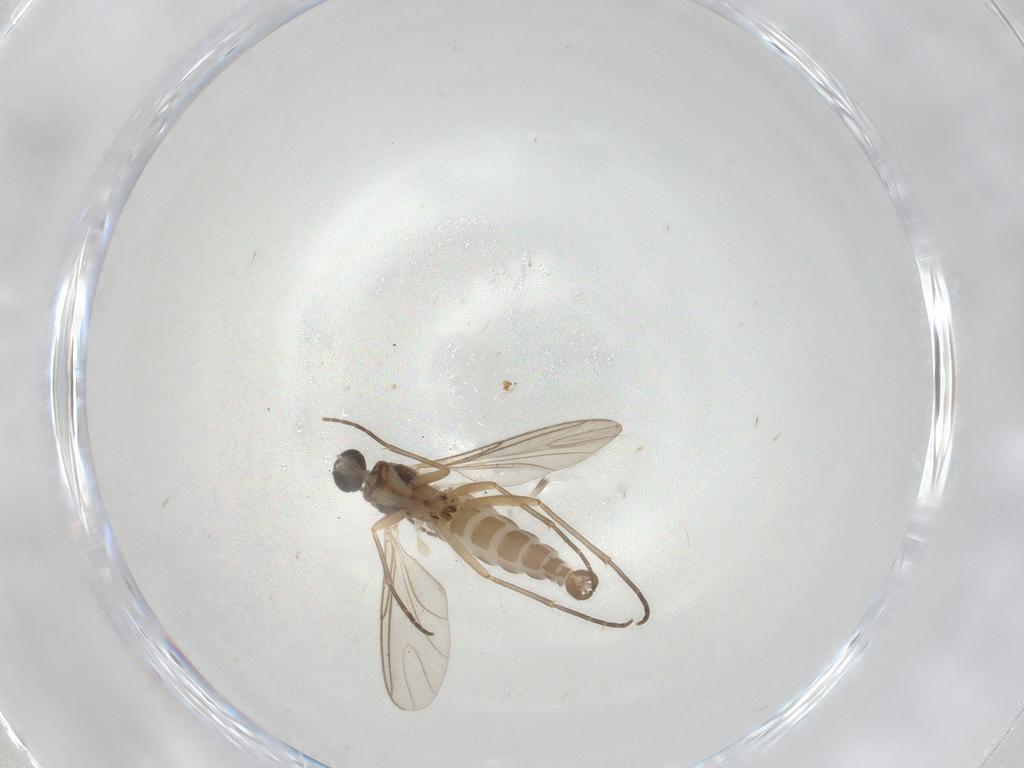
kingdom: Animalia
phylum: Arthropoda
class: Insecta
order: Diptera
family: Sciaridae
